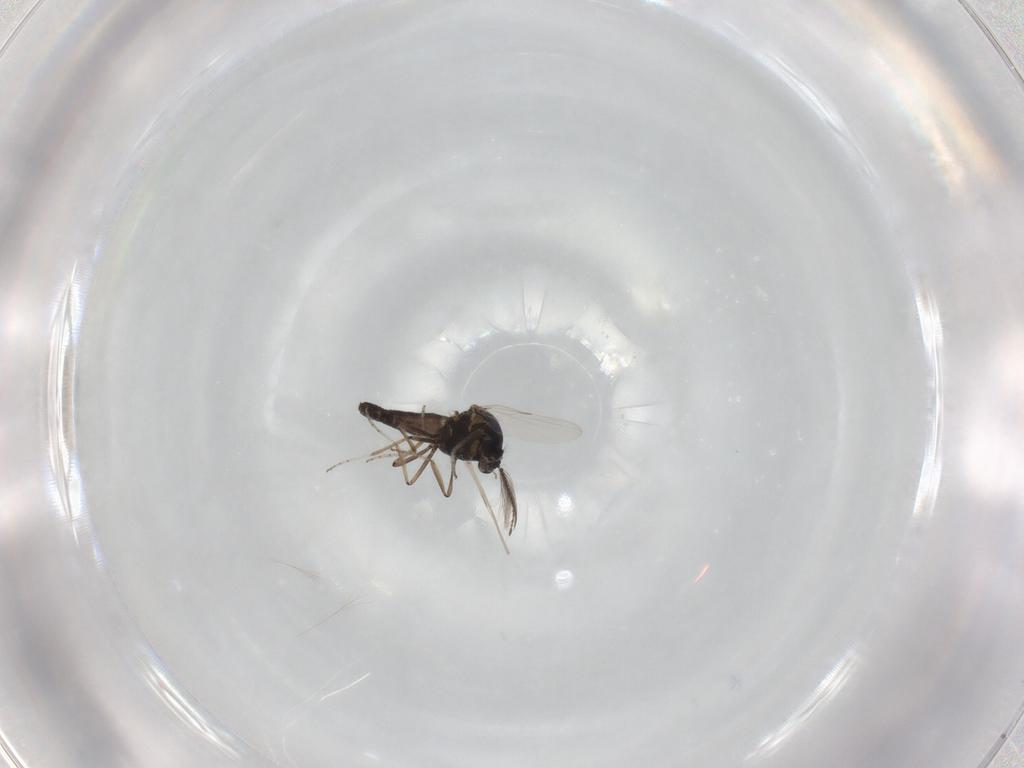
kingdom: Animalia
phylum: Arthropoda
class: Insecta
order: Diptera
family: Ceratopogonidae
